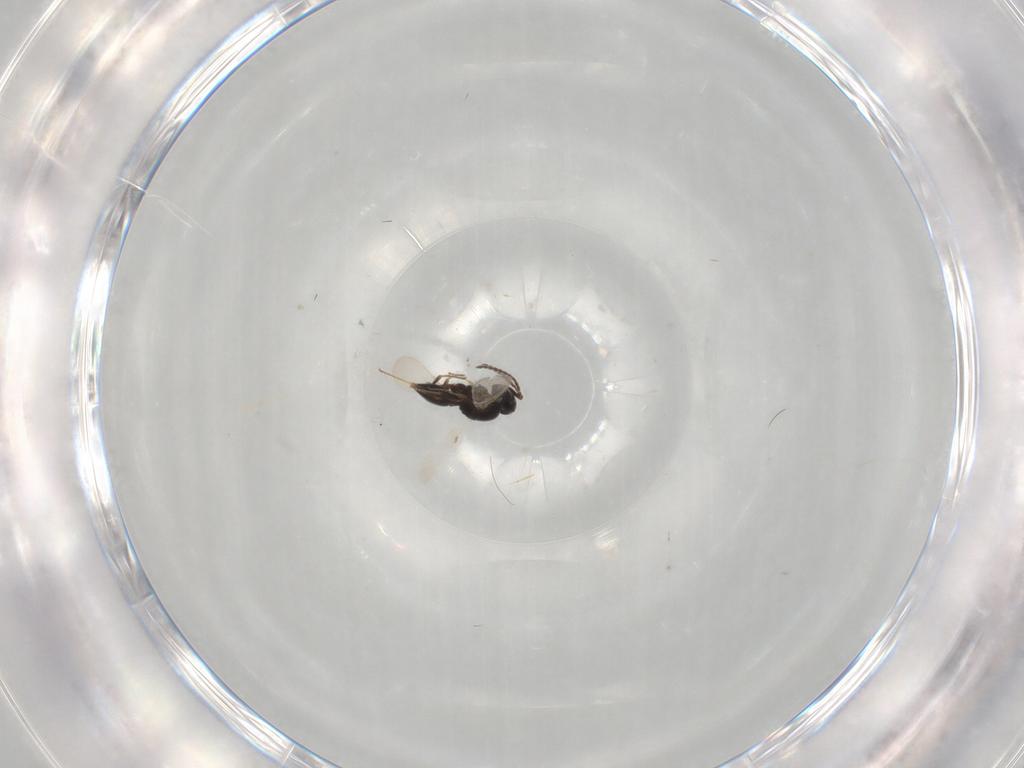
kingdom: Animalia
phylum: Arthropoda
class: Insecta
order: Hymenoptera
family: Scelionidae
